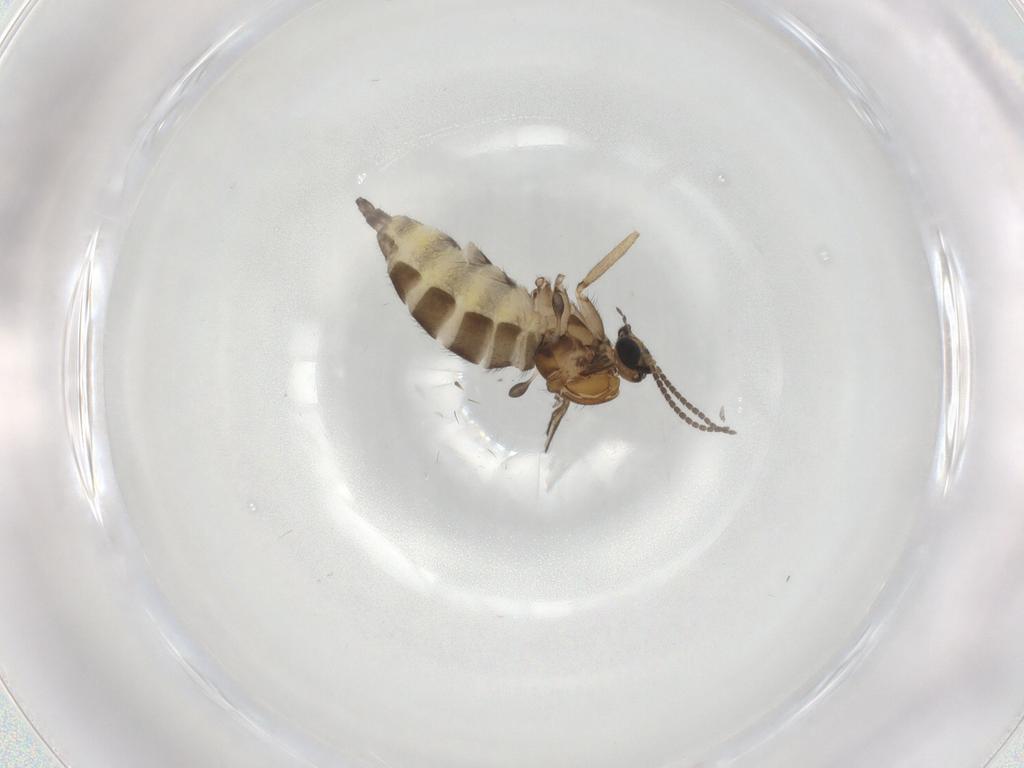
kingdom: Animalia
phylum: Arthropoda
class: Insecta
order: Diptera
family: Sciaridae
